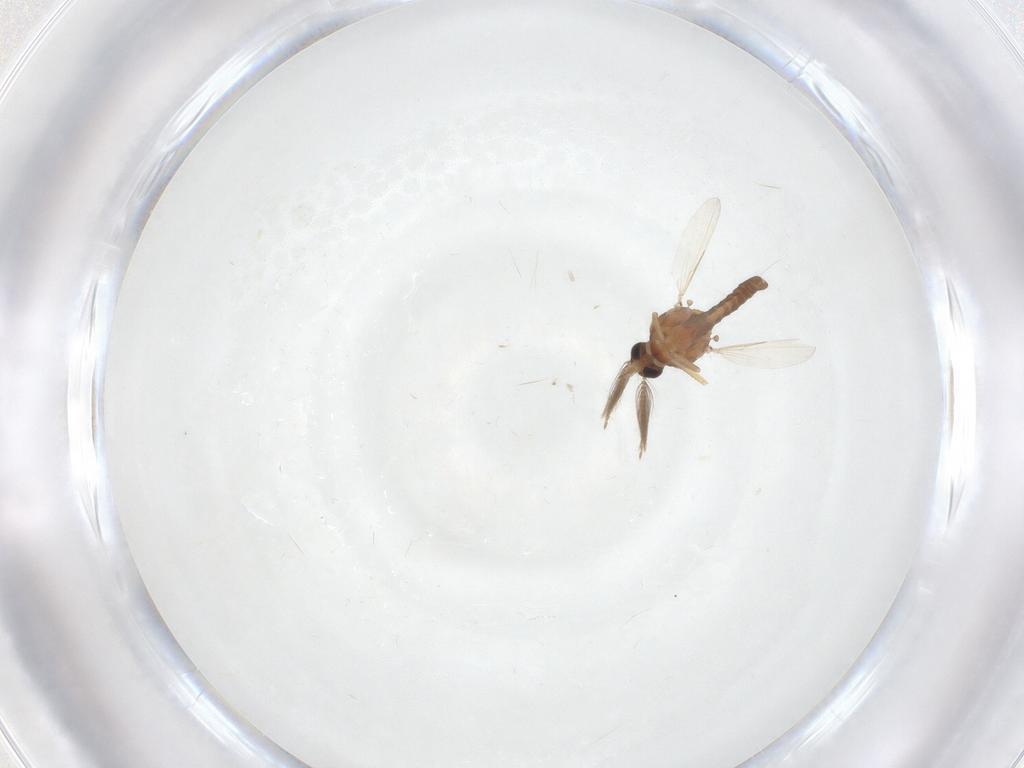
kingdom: Animalia
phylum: Arthropoda
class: Insecta
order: Diptera
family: Ceratopogonidae
